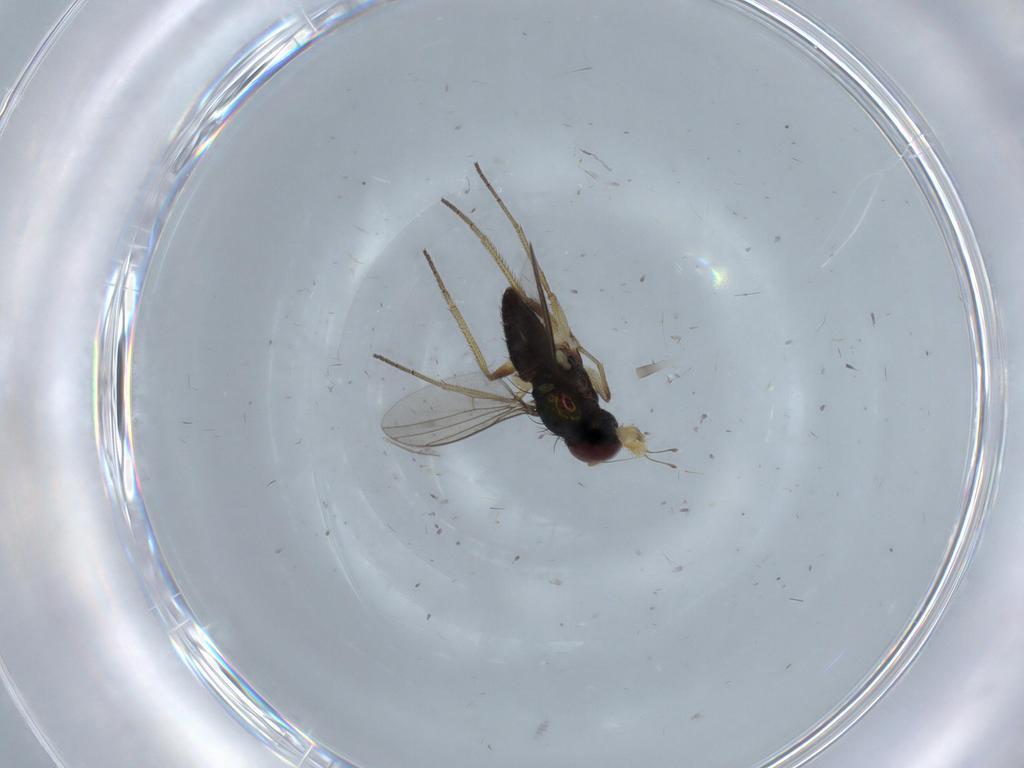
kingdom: Animalia
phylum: Arthropoda
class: Insecta
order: Diptera
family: Dolichopodidae
